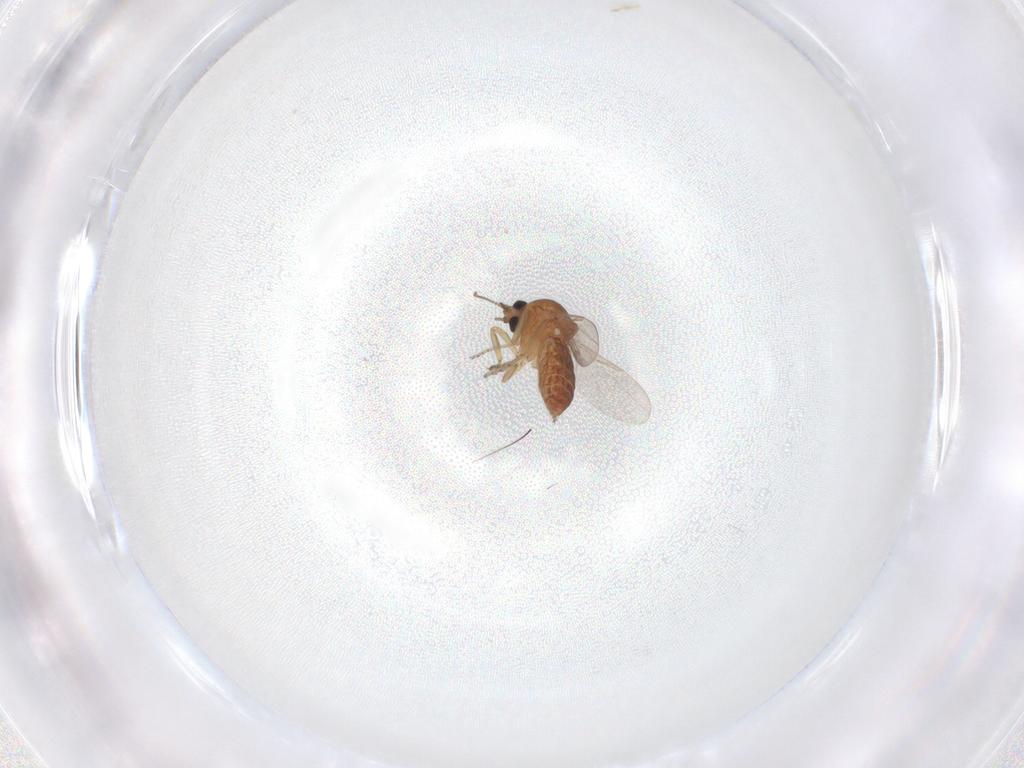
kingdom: Animalia
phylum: Arthropoda
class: Insecta
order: Diptera
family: Ceratopogonidae
